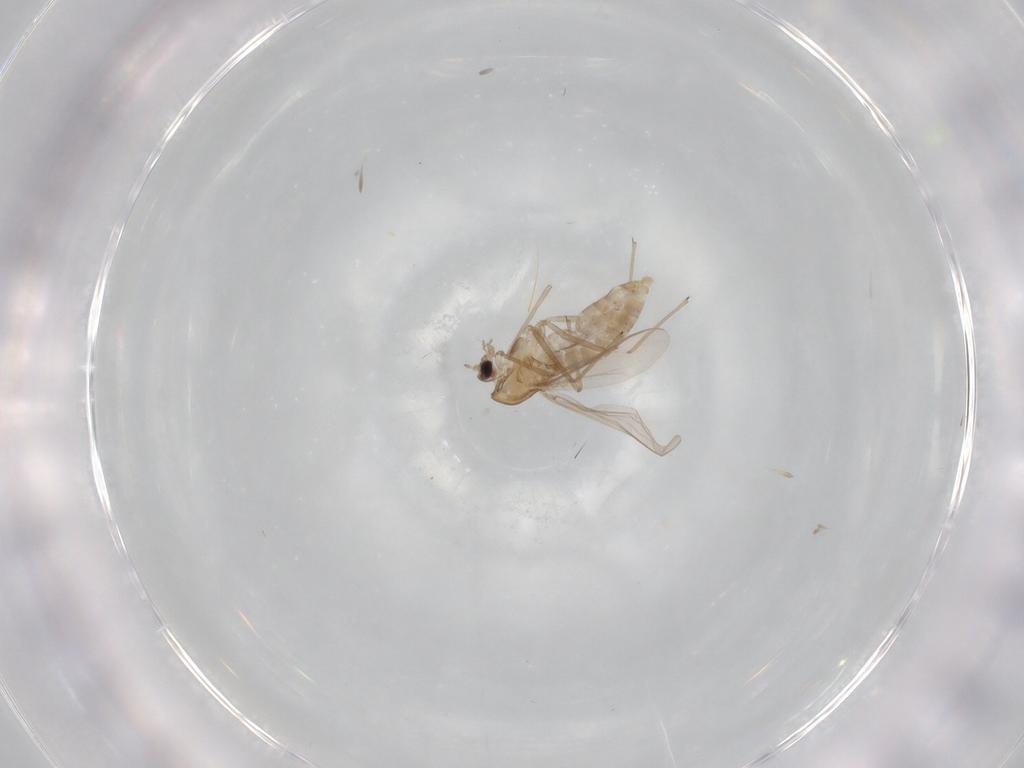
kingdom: Animalia
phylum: Arthropoda
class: Insecta
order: Diptera
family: Chironomidae
